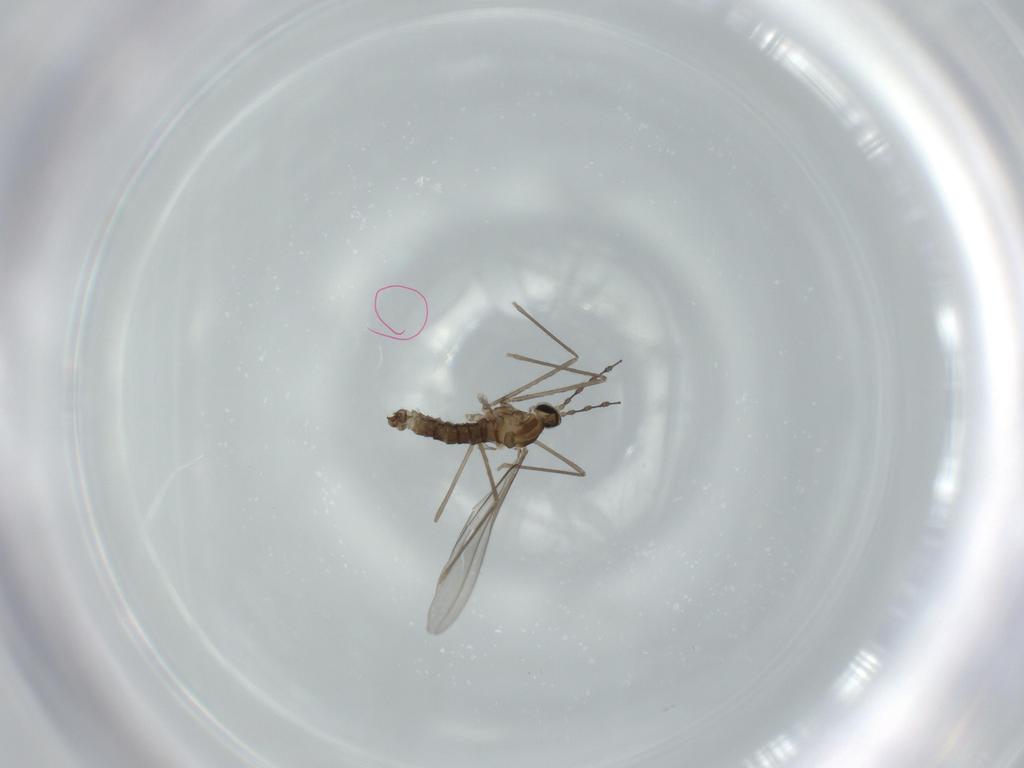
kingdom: Animalia
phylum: Arthropoda
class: Insecta
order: Diptera
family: Cecidomyiidae
